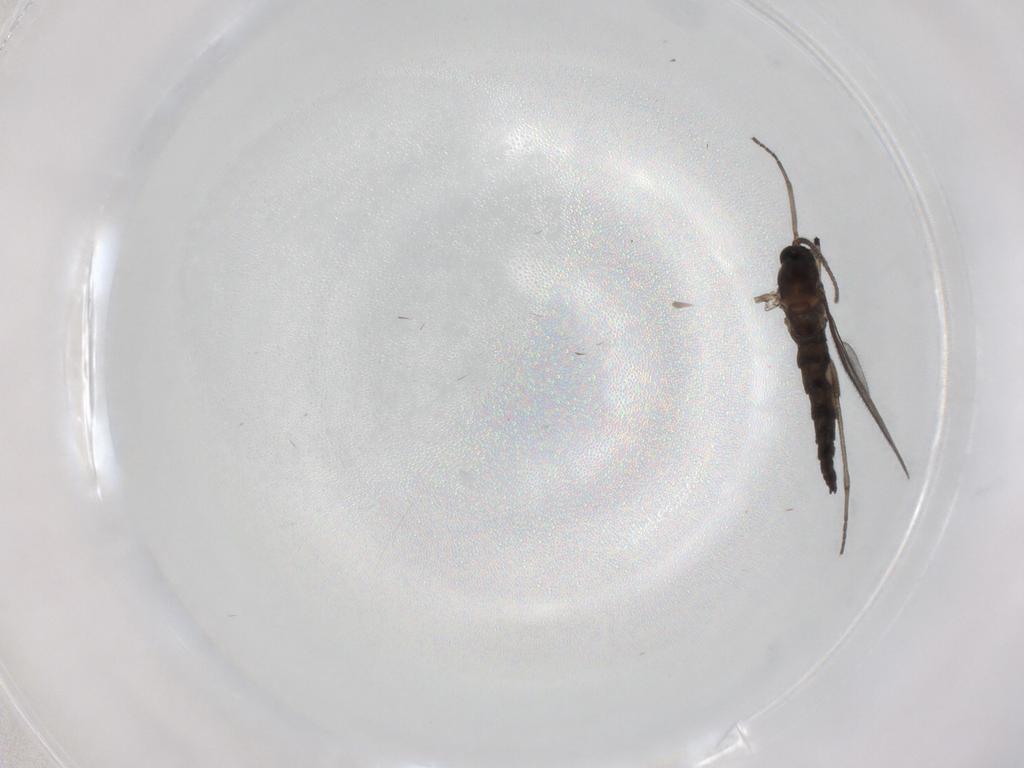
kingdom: Animalia
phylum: Arthropoda
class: Insecta
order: Diptera
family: Sciaridae
